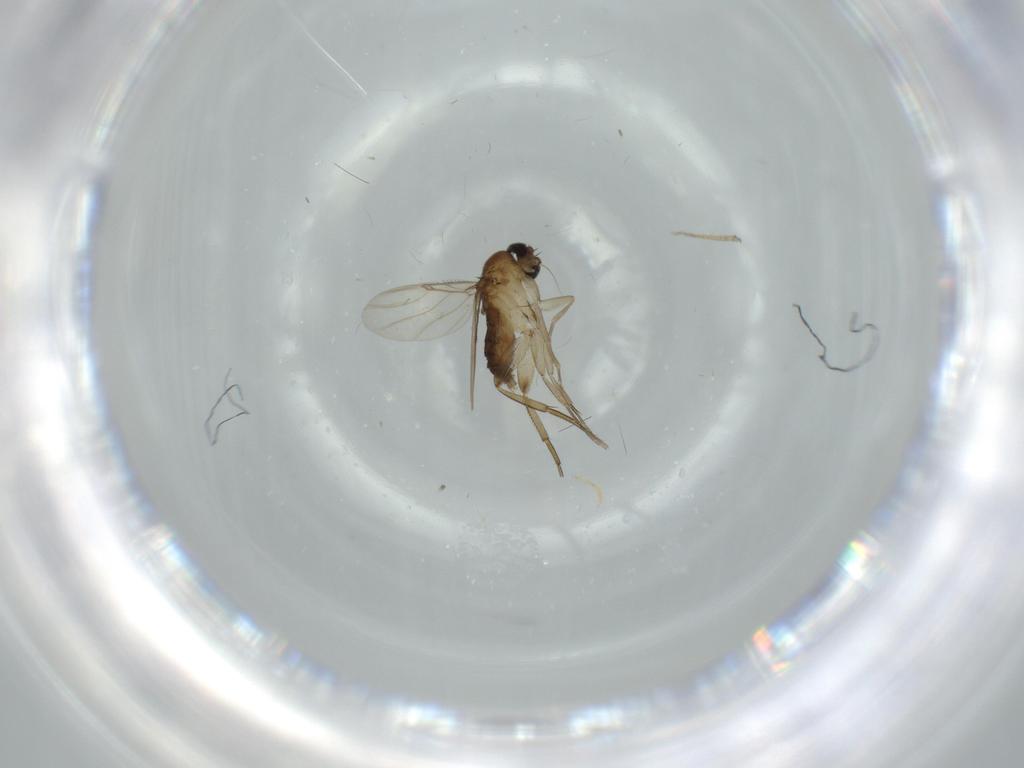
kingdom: Animalia
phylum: Arthropoda
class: Insecta
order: Diptera
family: Phoridae
